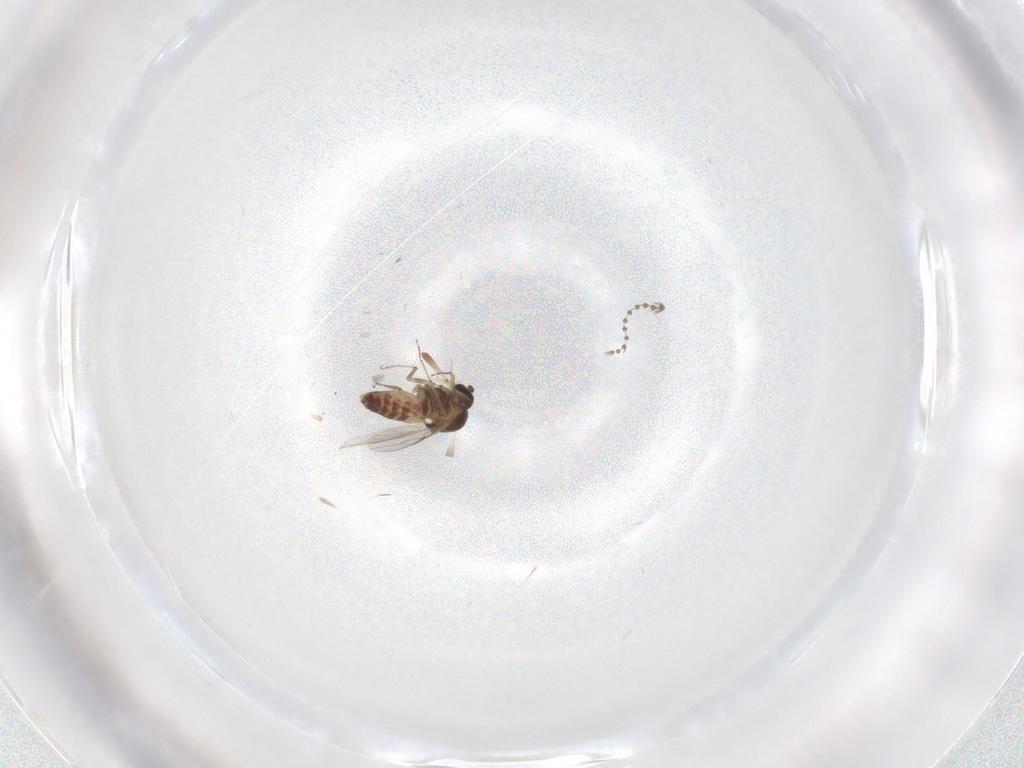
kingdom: Animalia
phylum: Arthropoda
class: Insecta
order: Diptera
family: Ceratopogonidae
